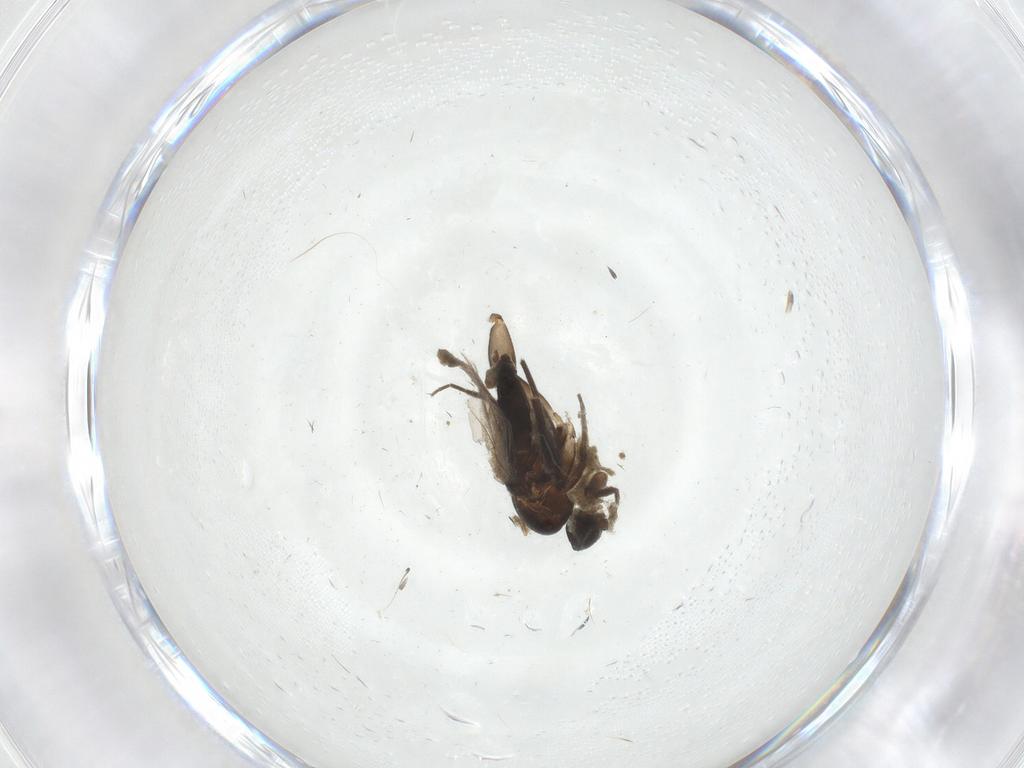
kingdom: Animalia
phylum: Arthropoda
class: Insecta
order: Diptera
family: Phoridae
